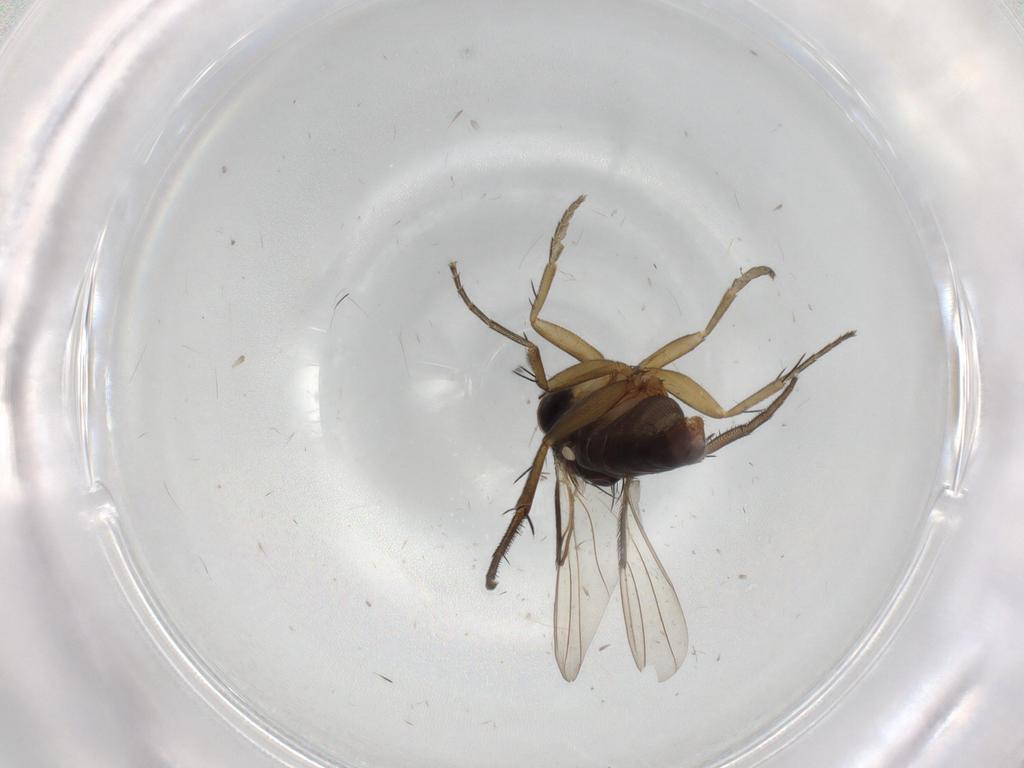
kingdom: Animalia
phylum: Arthropoda
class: Insecta
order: Diptera
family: Phoridae
